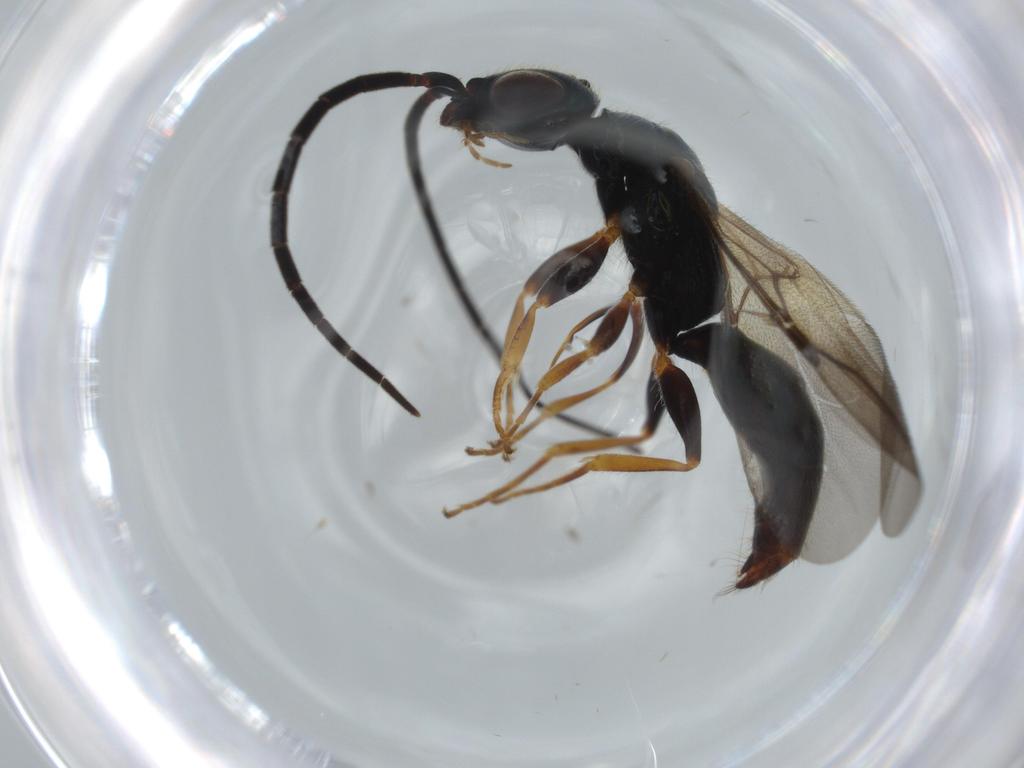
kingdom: Animalia
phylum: Arthropoda
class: Insecta
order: Hymenoptera
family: Bethylidae
